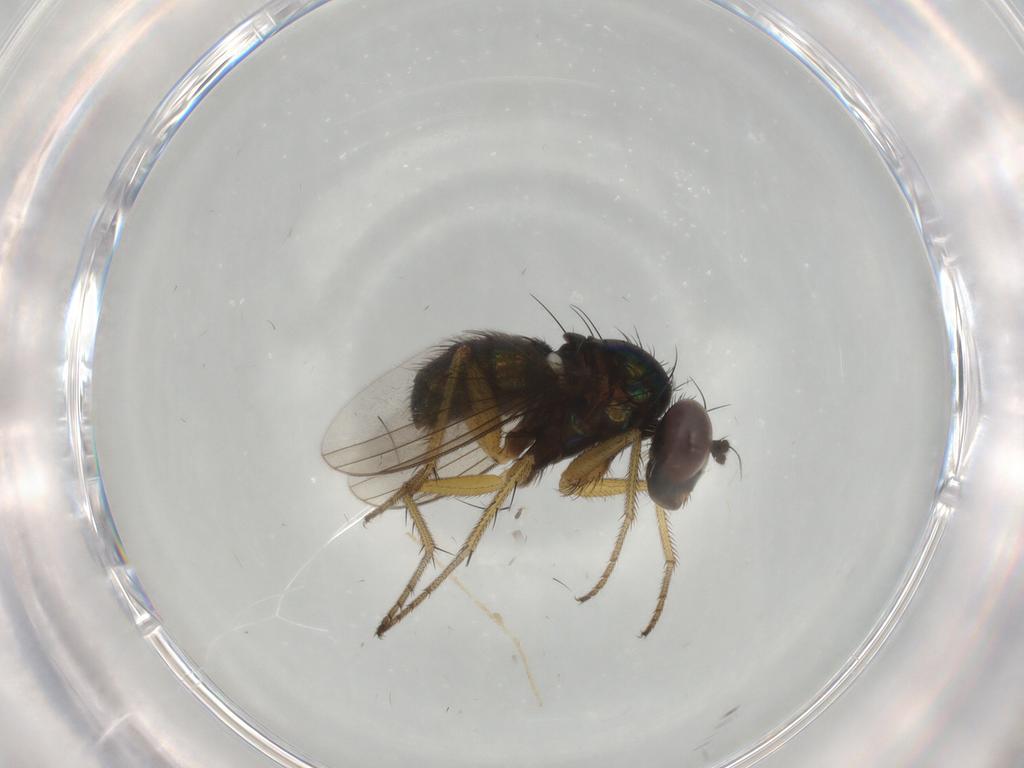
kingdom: Animalia
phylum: Arthropoda
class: Insecta
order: Diptera
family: Dolichopodidae
